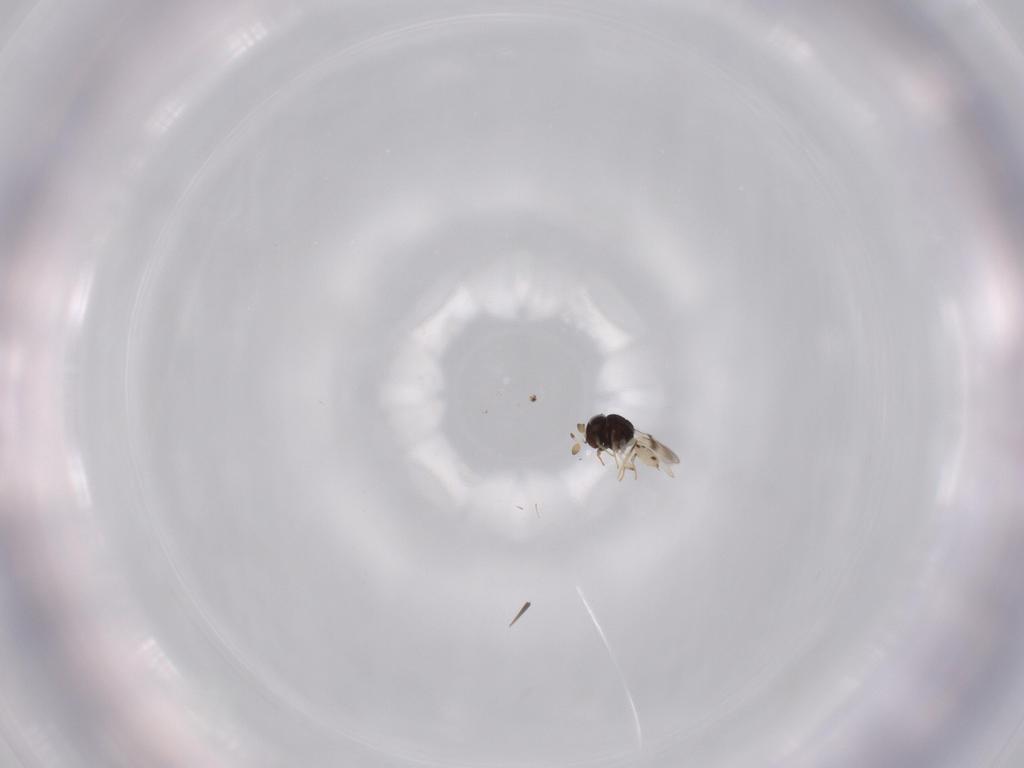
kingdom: Animalia
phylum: Arthropoda
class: Insecta
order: Hymenoptera
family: Scelionidae
